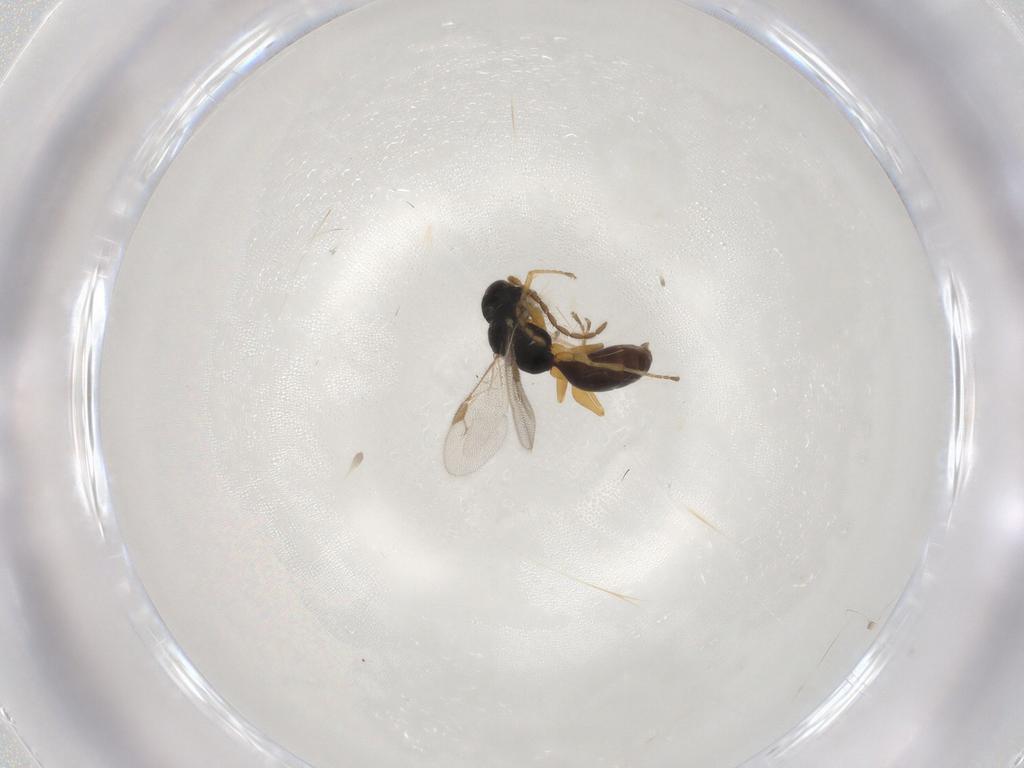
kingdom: Animalia
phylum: Arthropoda
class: Insecta
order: Hymenoptera
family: Dryinidae
